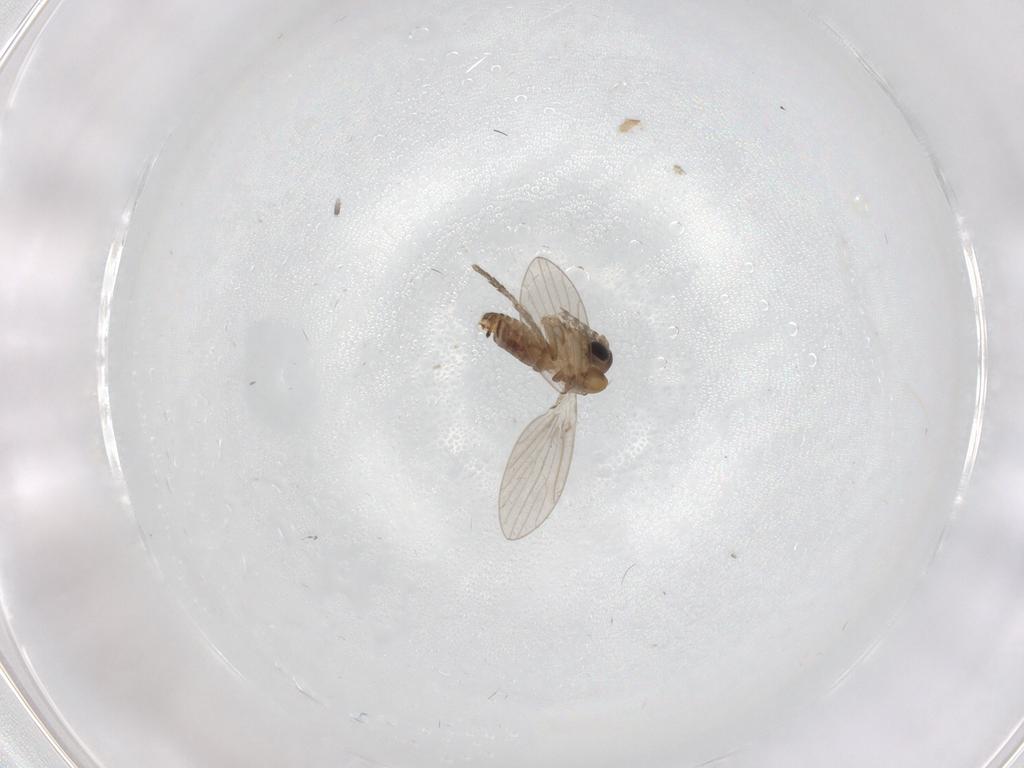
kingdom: Animalia
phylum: Arthropoda
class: Insecta
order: Diptera
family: Psychodidae
